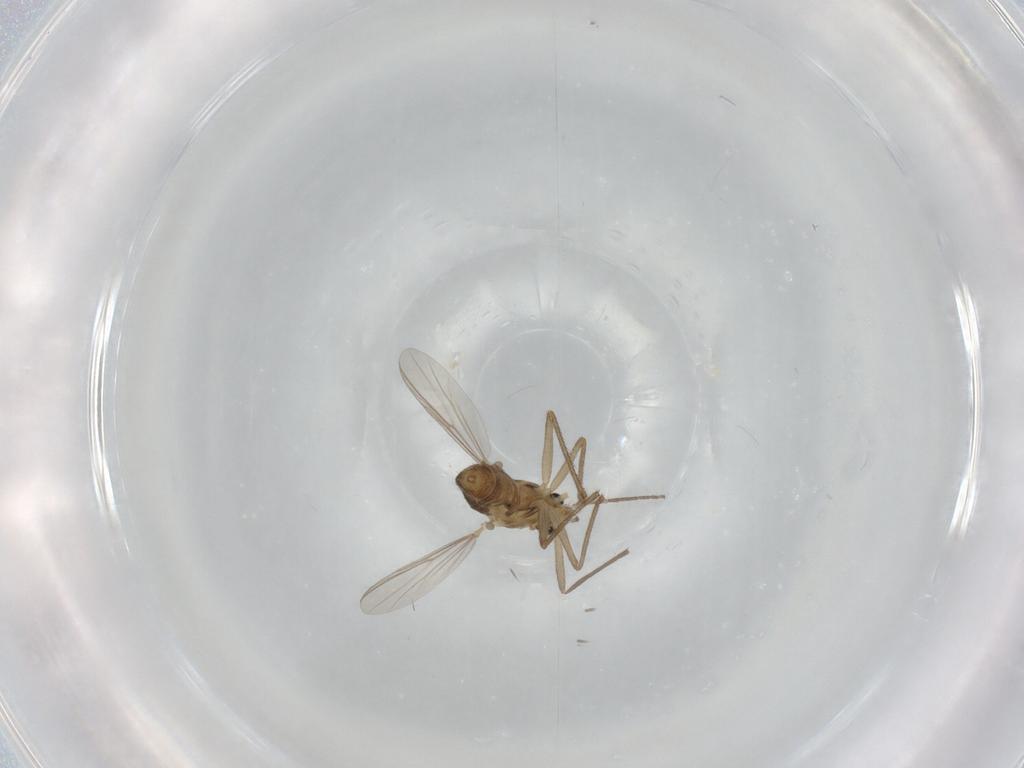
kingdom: Animalia
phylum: Arthropoda
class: Insecta
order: Diptera
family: Chironomidae
